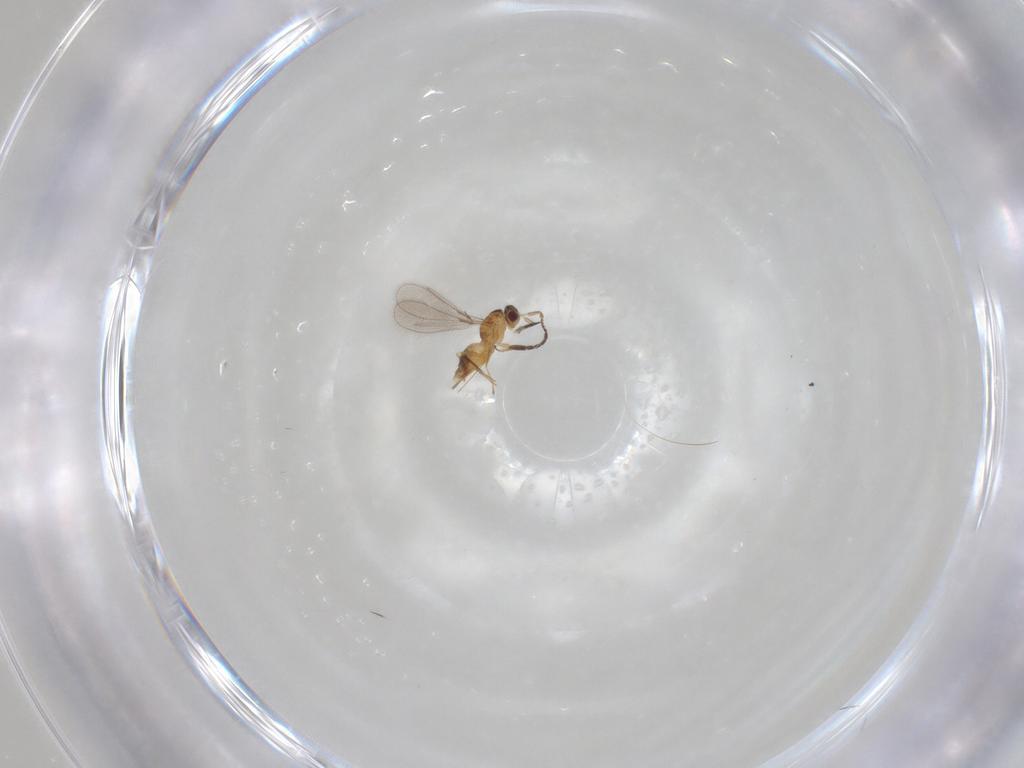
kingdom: Animalia
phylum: Arthropoda
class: Insecta
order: Hymenoptera
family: Mymaridae
